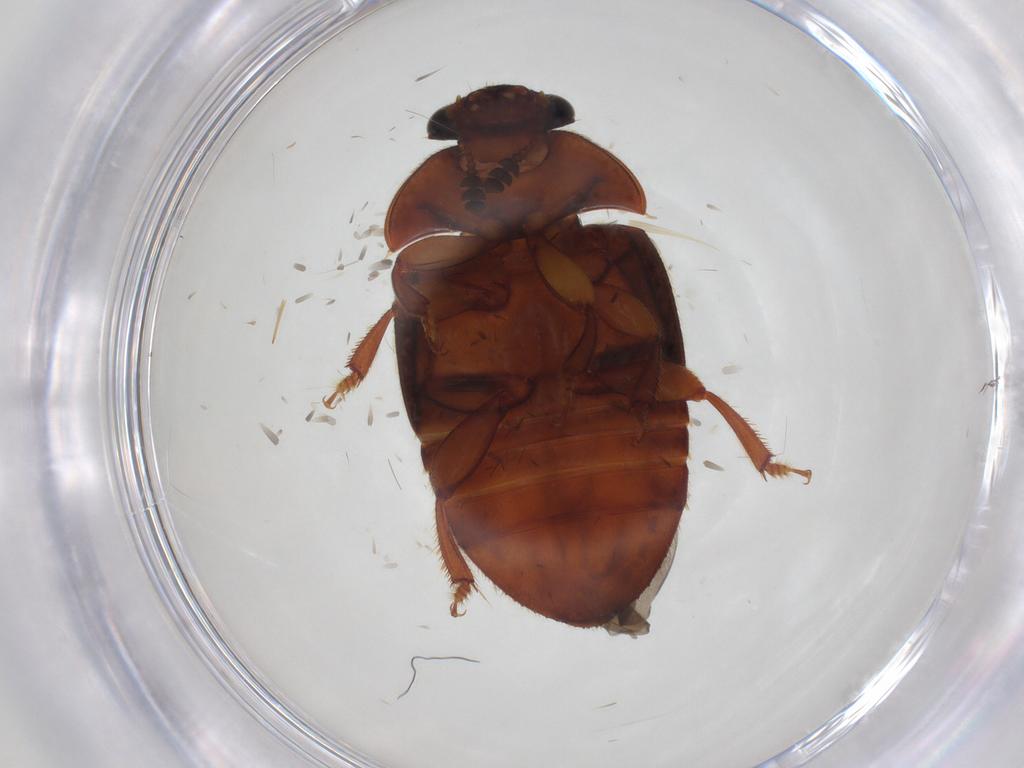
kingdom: Animalia
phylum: Arthropoda
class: Insecta
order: Coleoptera
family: Nitidulidae
